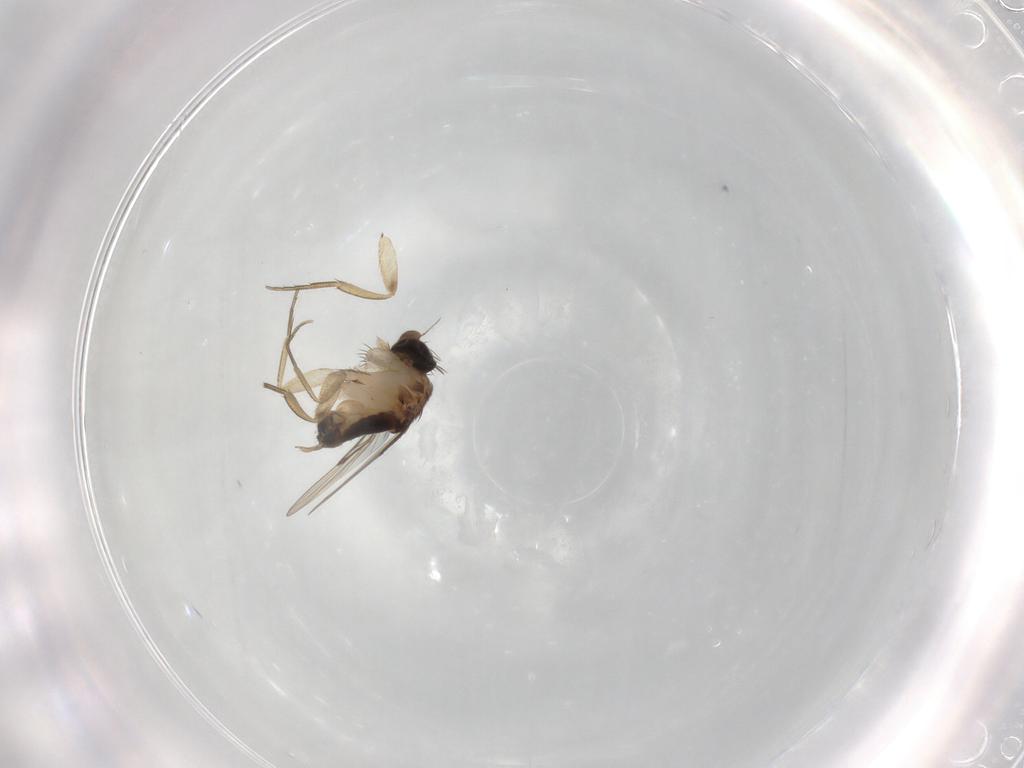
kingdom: Animalia
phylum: Arthropoda
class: Insecta
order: Diptera
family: Phoridae
